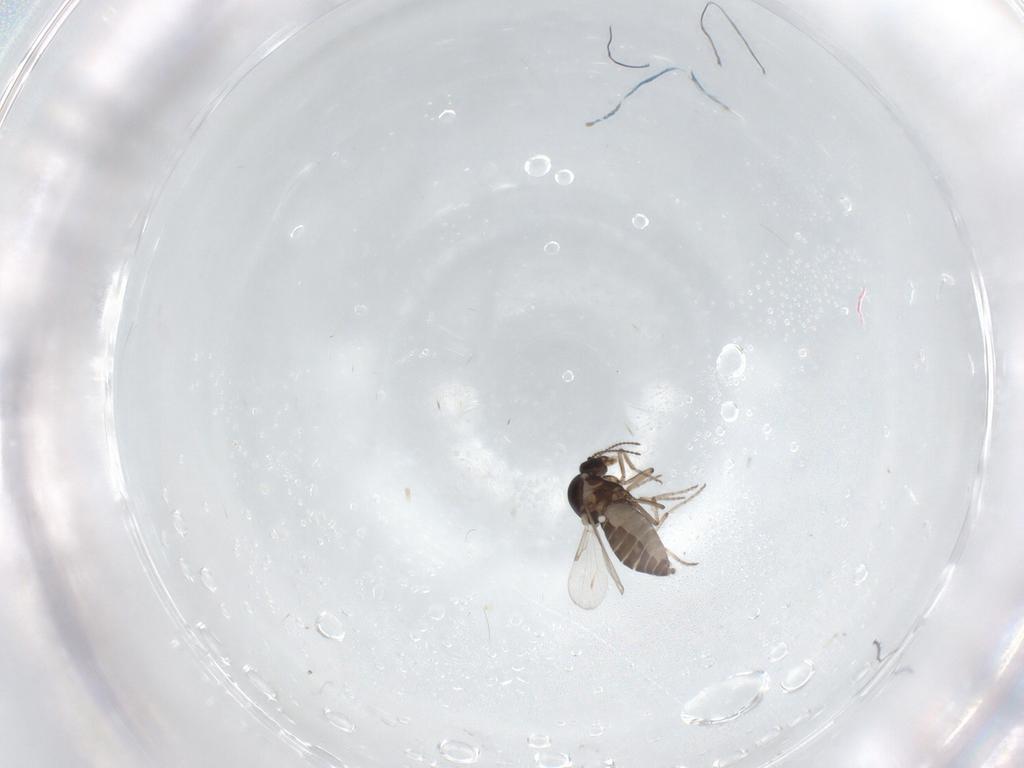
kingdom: Animalia
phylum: Arthropoda
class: Insecta
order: Diptera
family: Ceratopogonidae
